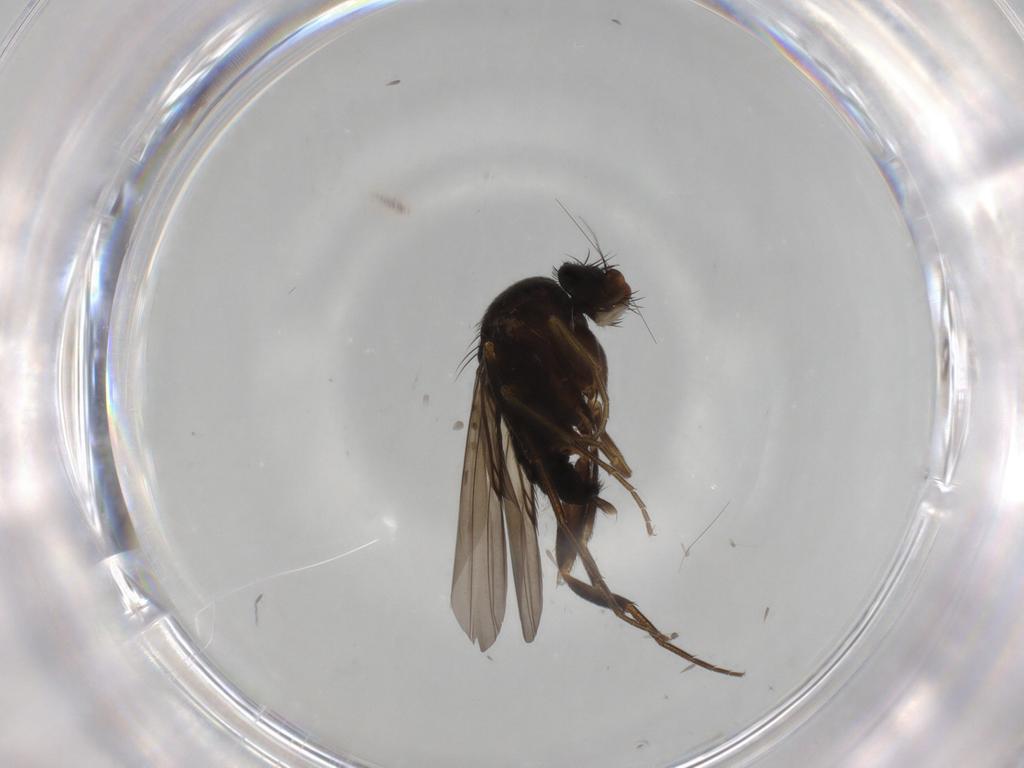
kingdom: Animalia
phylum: Arthropoda
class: Insecta
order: Diptera
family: Phoridae
